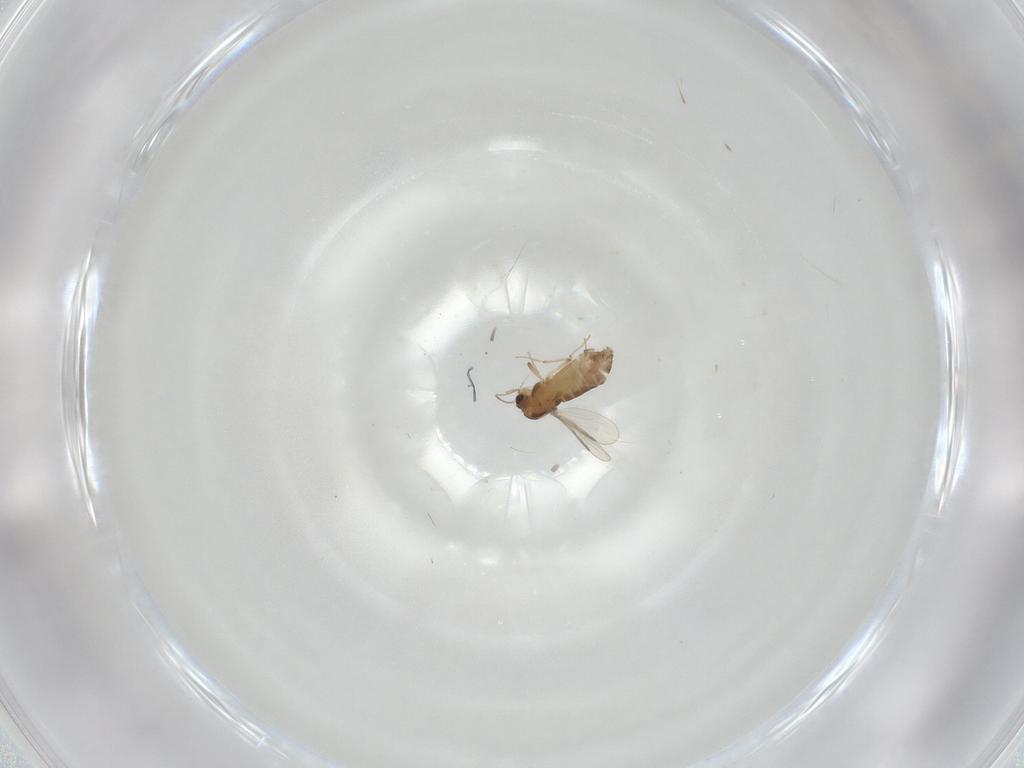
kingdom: Animalia
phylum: Arthropoda
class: Insecta
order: Diptera
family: Chironomidae
